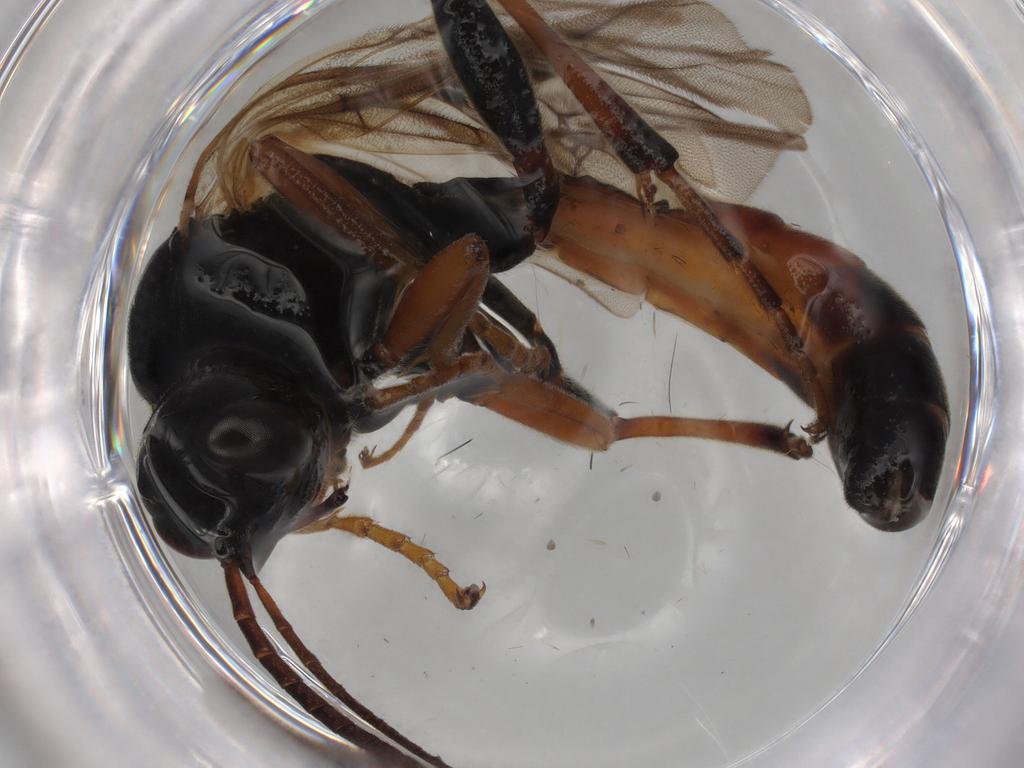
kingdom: Animalia
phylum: Arthropoda
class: Insecta
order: Hymenoptera
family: Ichneumonidae
